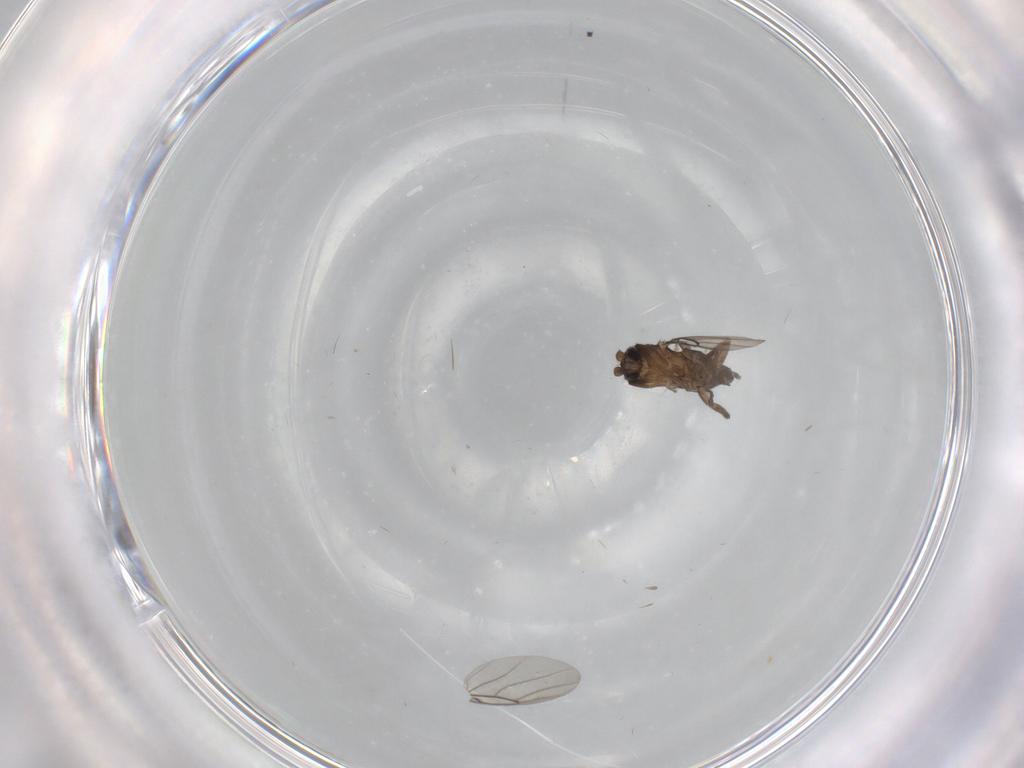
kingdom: Animalia
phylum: Arthropoda
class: Insecta
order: Diptera
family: Phoridae
